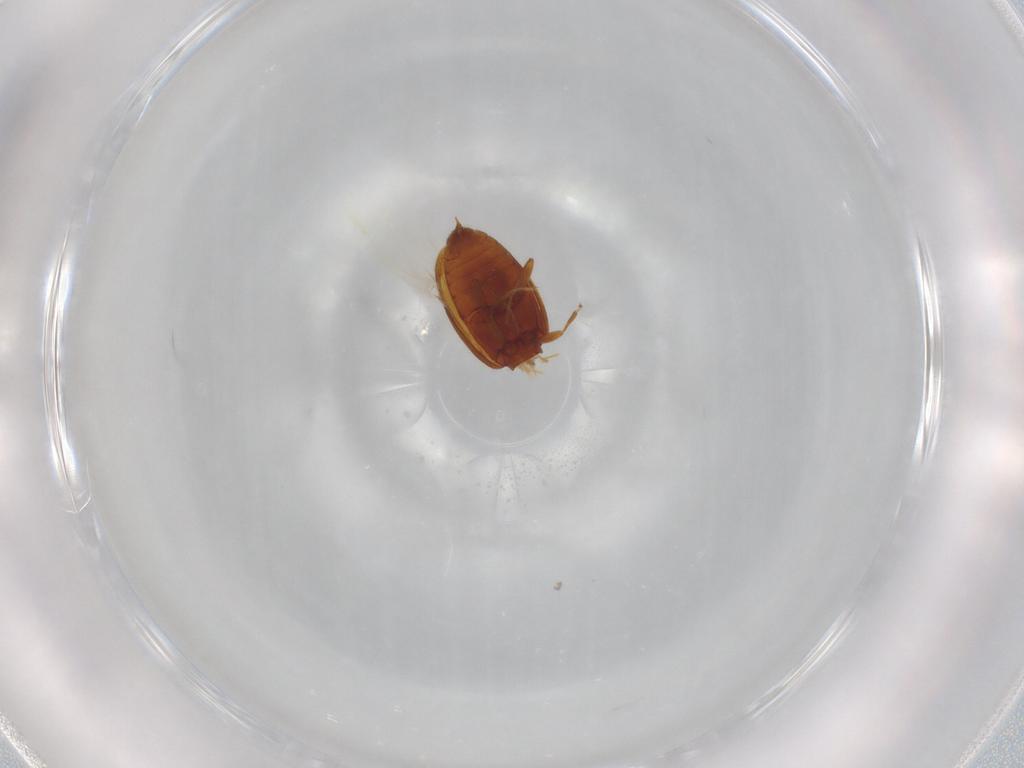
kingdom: Animalia
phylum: Arthropoda
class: Insecta
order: Coleoptera
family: Latridiidae
